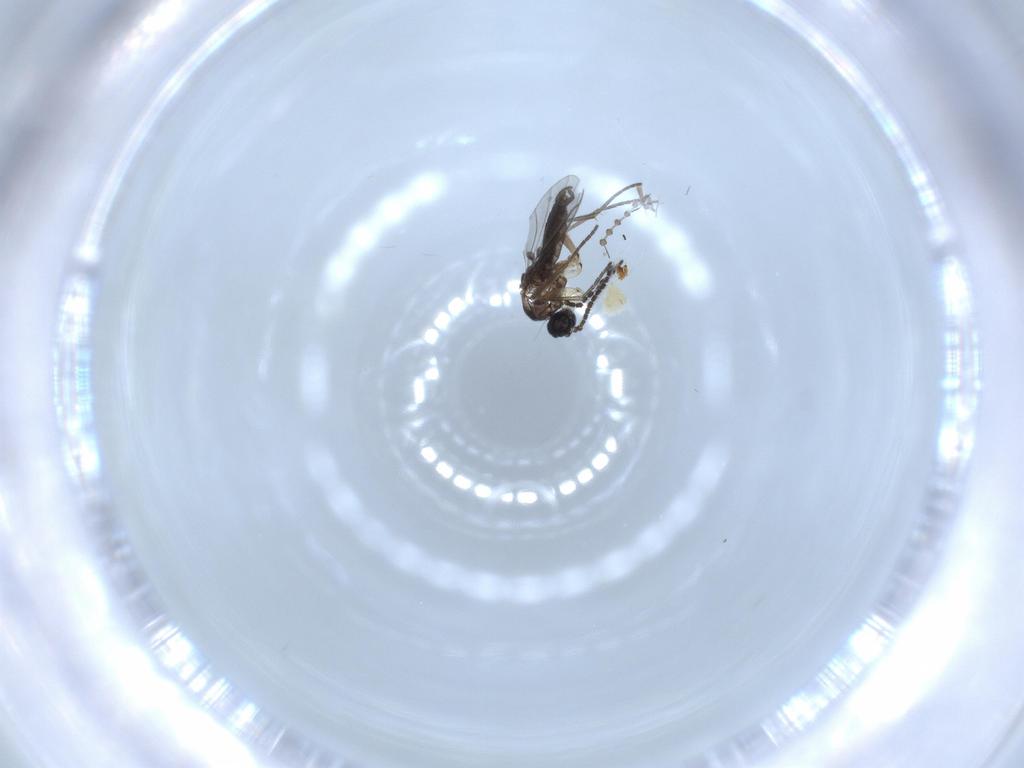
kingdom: Animalia
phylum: Arthropoda
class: Insecta
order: Diptera
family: Sciaridae
